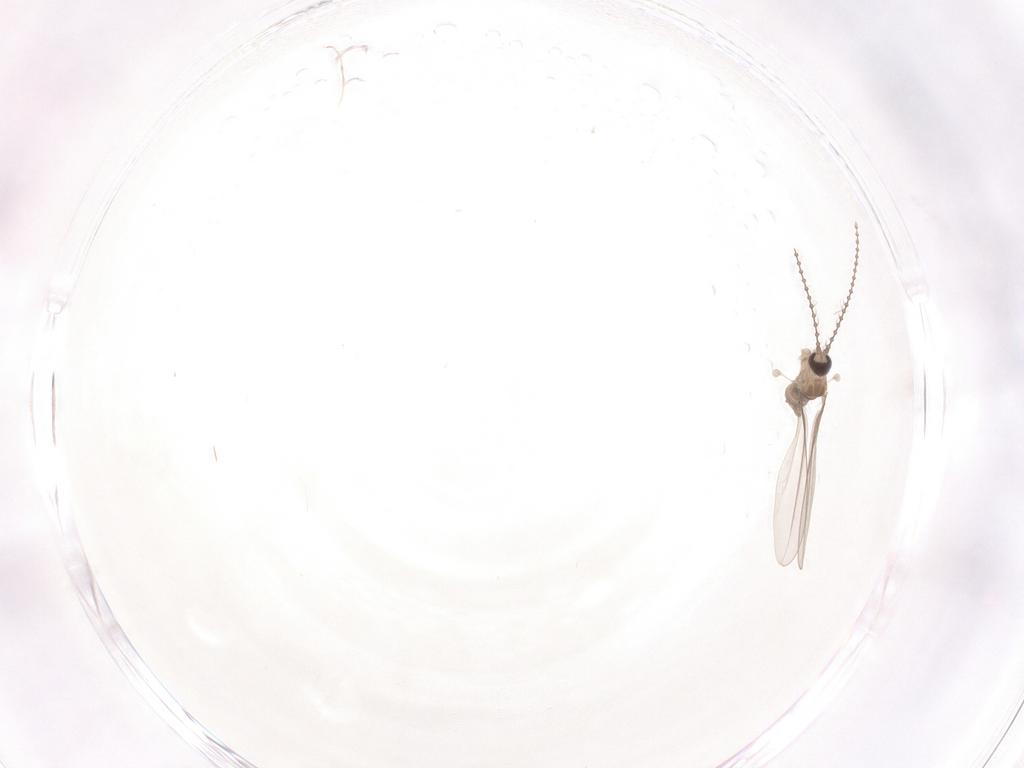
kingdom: Animalia
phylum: Arthropoda
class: Insecta
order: Diptera
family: Cecidomyiidae
